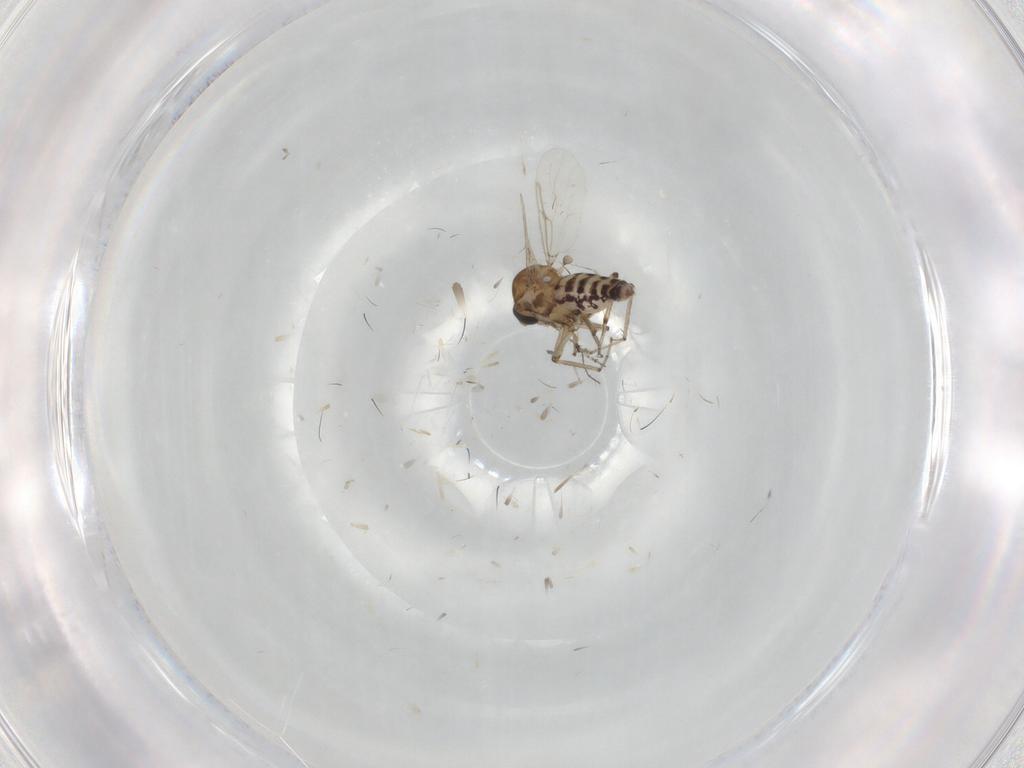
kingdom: Animalia
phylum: Arthropoda
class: Insecta
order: Diptera
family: Ceratopogonidae
